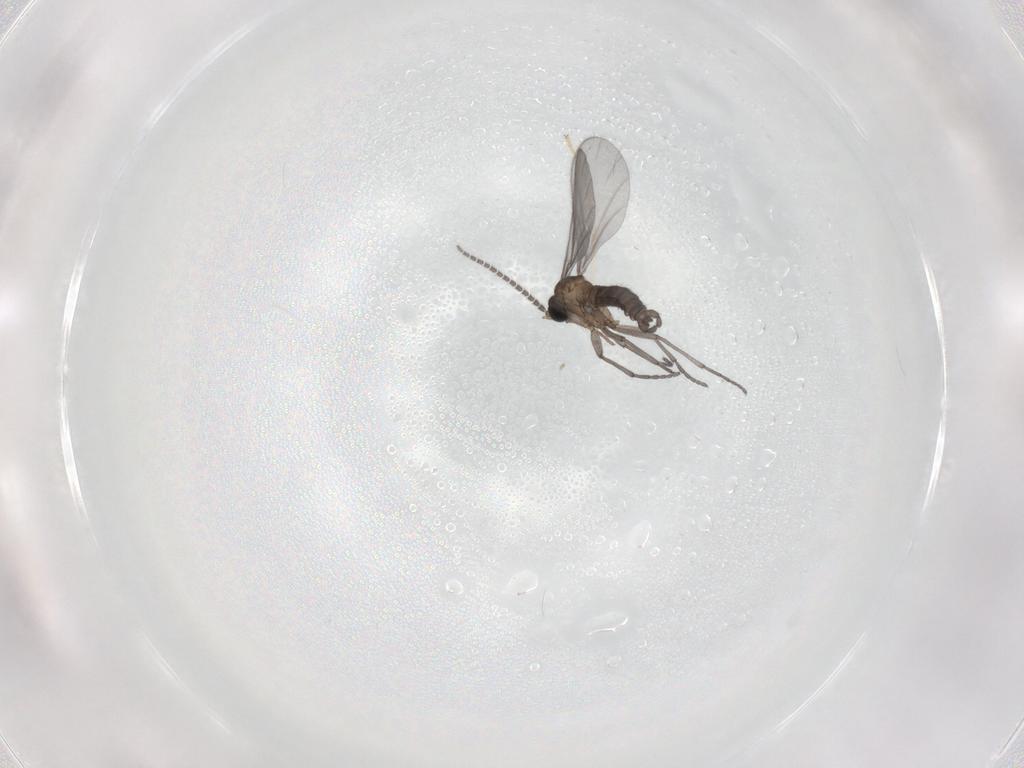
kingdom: Animalia
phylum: Arthropoda
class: Insecta
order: Diptera
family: Sciaridae
